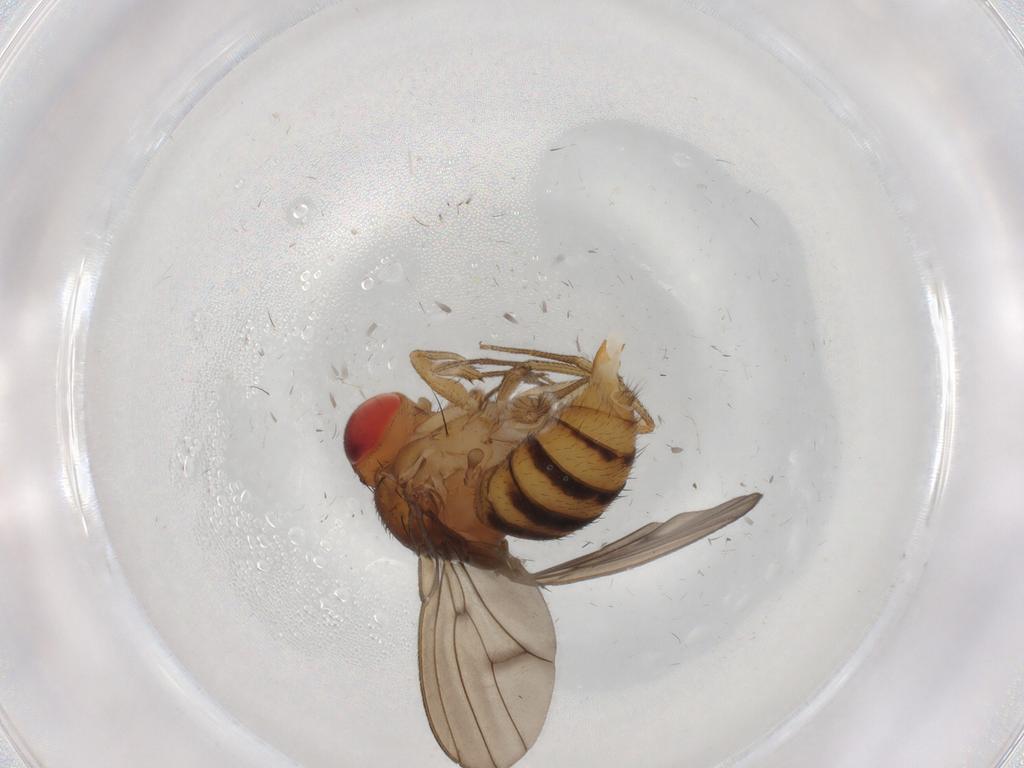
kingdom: Animalia
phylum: Arthropoda
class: Insecta
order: Diptera
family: Drosophilidae
